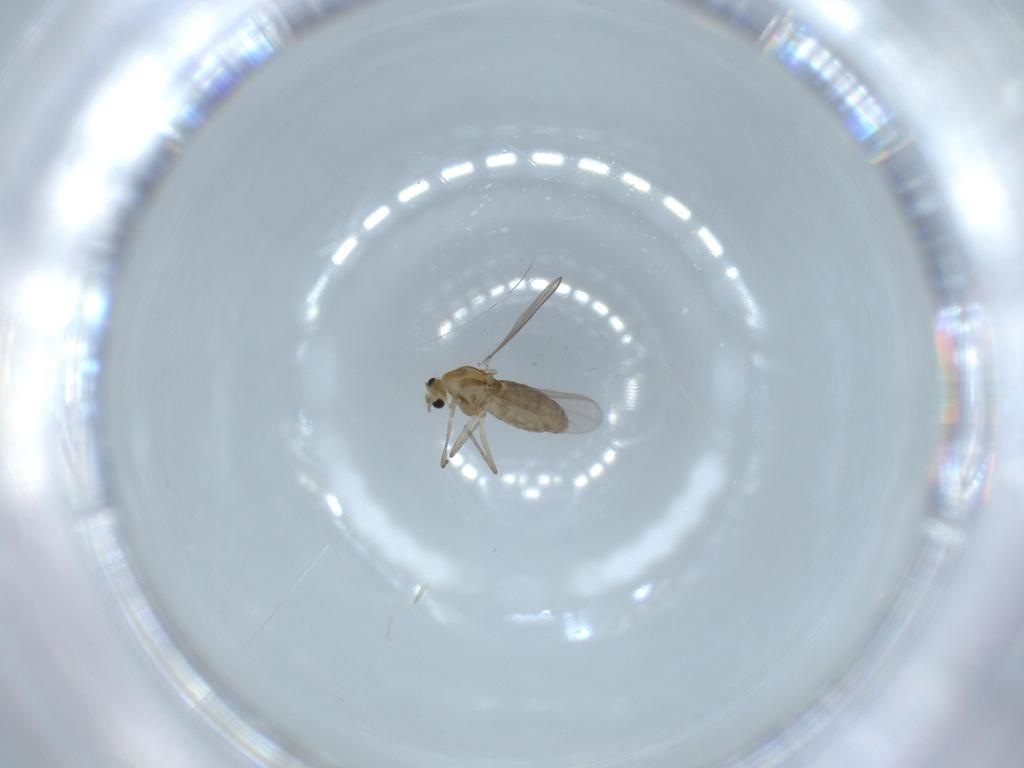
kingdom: Animalia
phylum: Arthropoda
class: Insecta
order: Diptera
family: Chironomidae
